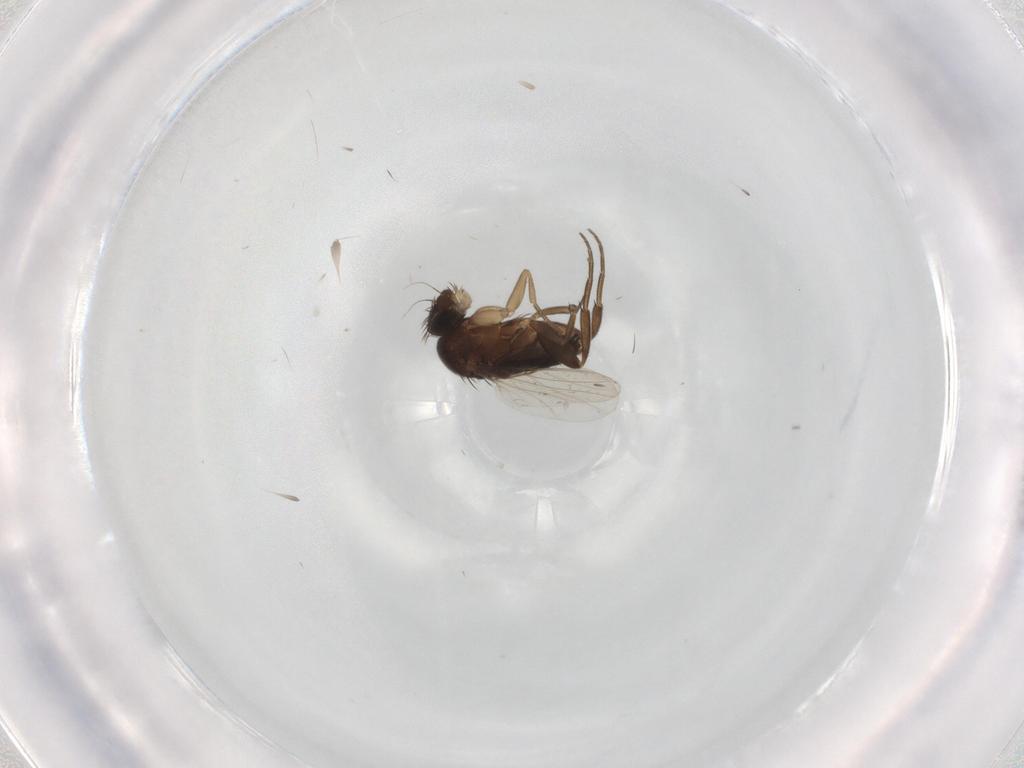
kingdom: Animalia
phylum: Arthropoda
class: Insecta
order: Diptera
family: Phoridae
